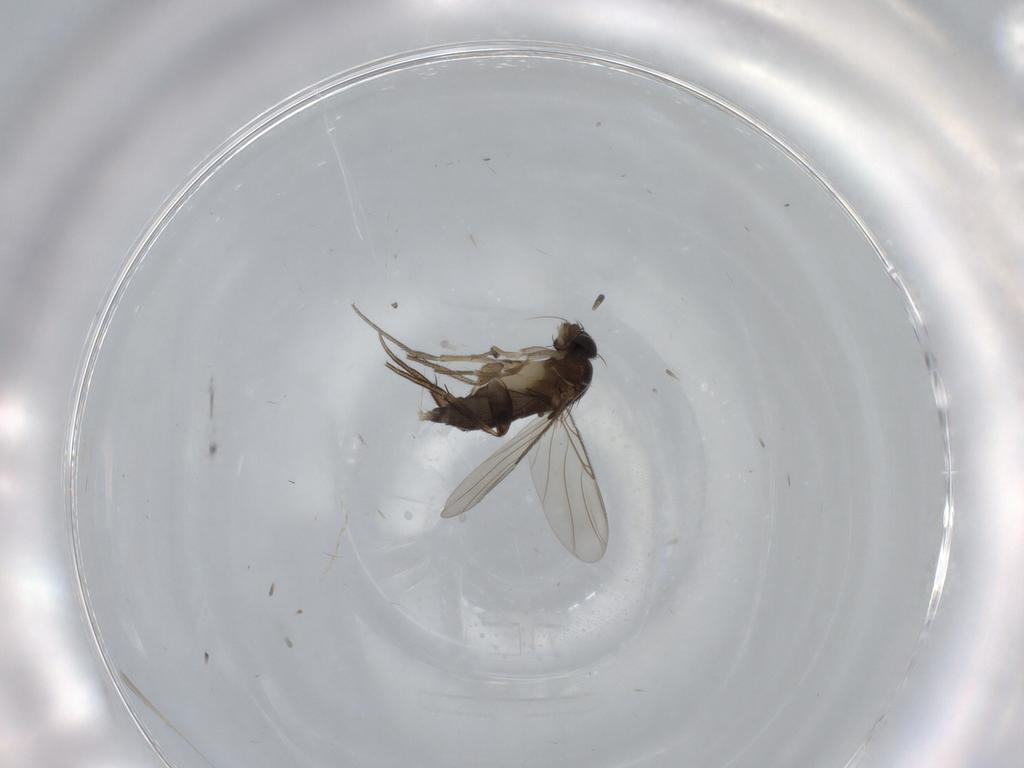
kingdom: Animalia
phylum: Arthropoda
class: Insecta
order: Diptera
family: Phoridae
